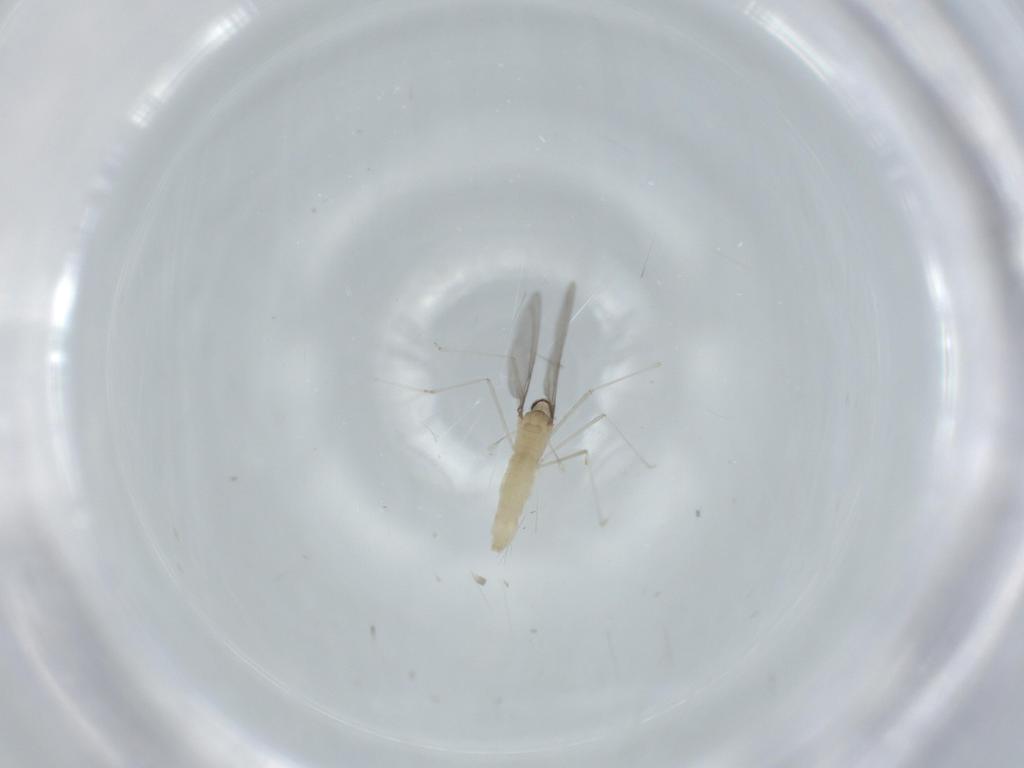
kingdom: Animalia
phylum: Arthropoda
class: Insecta
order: Diptera
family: Cecidomyiidae
